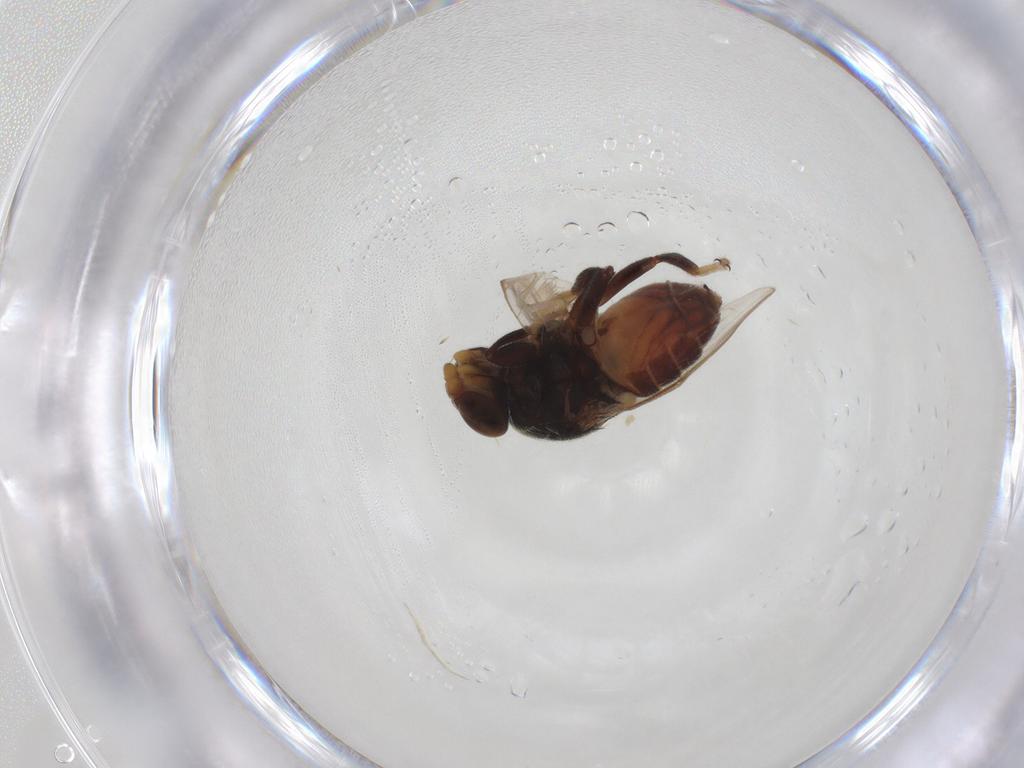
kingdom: Animalia
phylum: Arthropoda
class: Insecta
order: Diptera
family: Chloropidae
